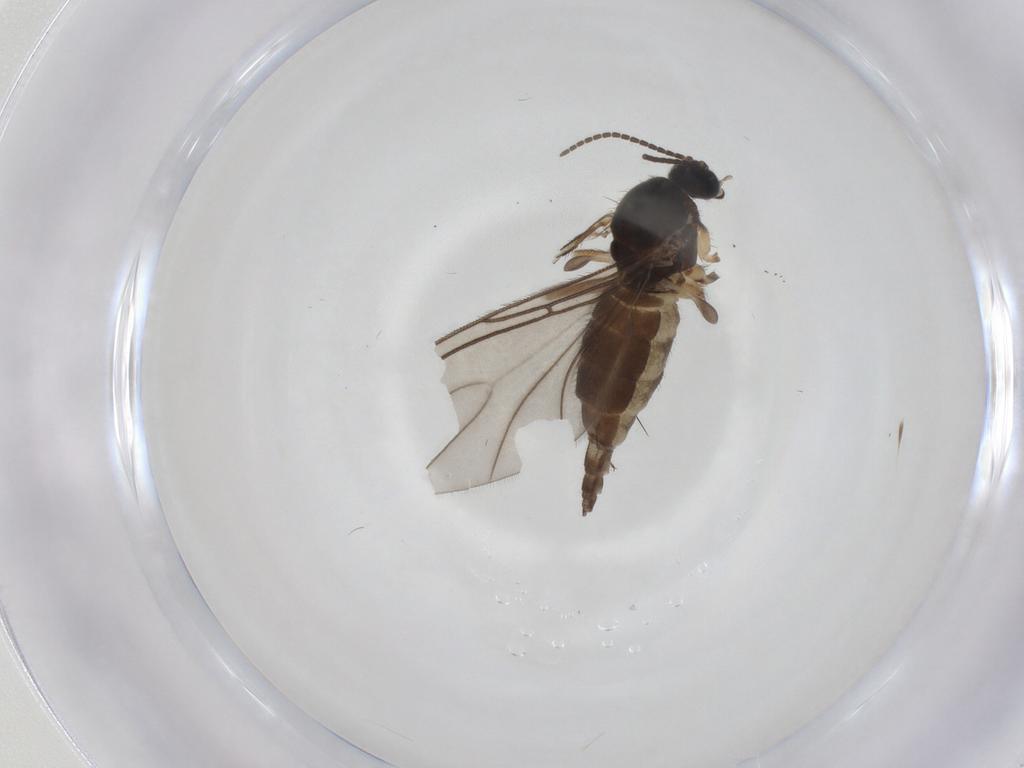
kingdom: Animalia
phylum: Arthropoda
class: Insecta
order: Diptera
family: Sciaridae
